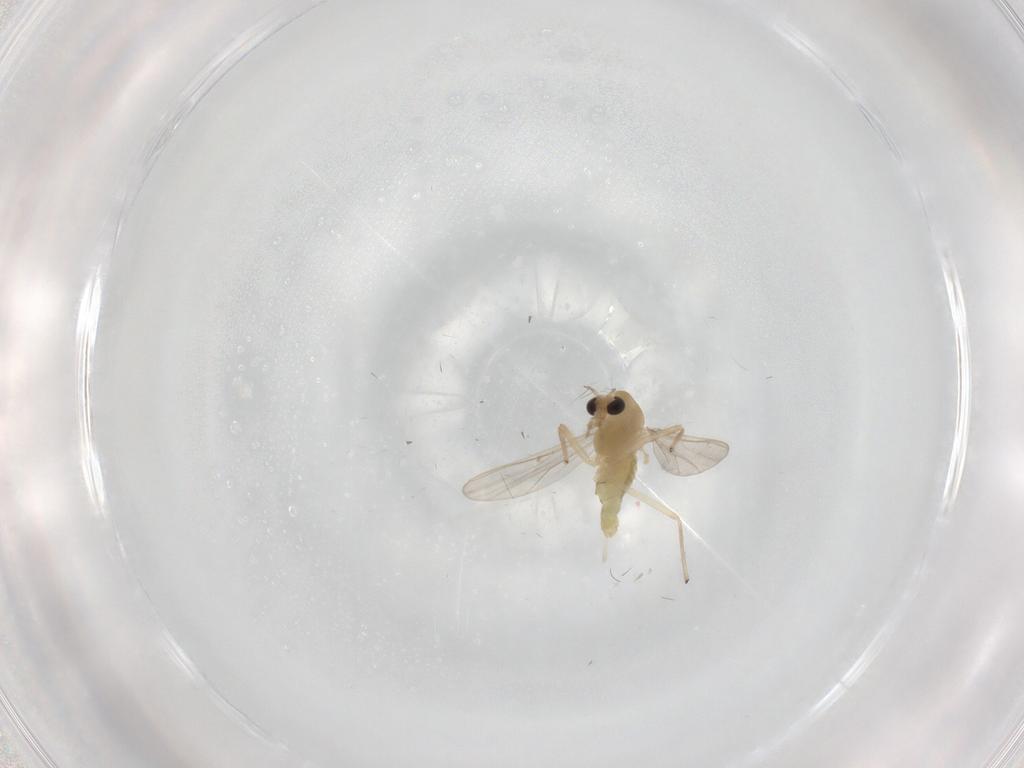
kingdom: Animalia
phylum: Arthropoda
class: Insecta
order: Diptera
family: Chironomidae
